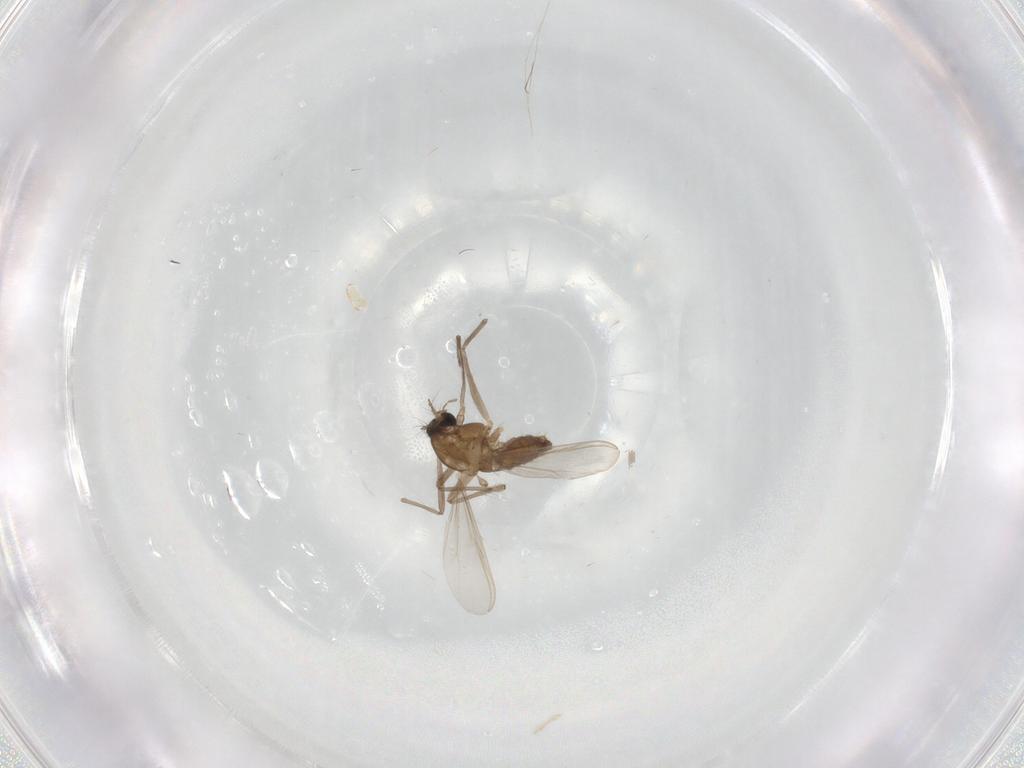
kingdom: Animalia
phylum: Arthropoda
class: Insecta
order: Diptera
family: Chironomidae
